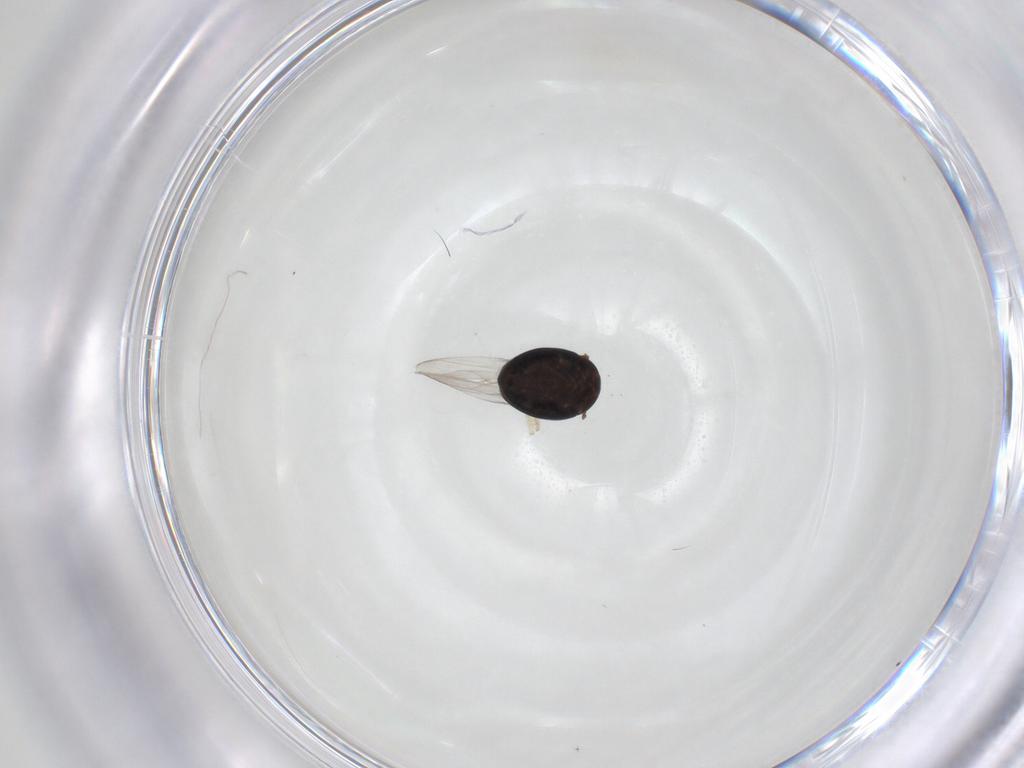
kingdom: Animalia
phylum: Arthropoda
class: Insecta
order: Coleoptera
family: Corylophidae
